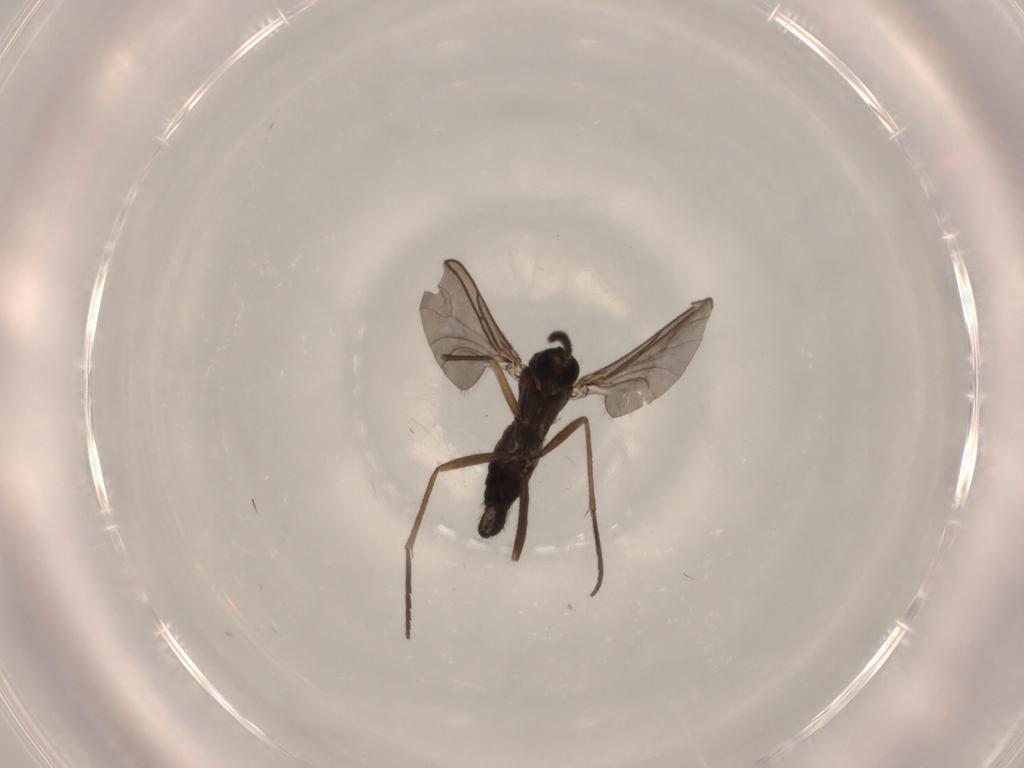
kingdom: Animalia
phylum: Arthropoda
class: Insecta
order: Diptera
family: Sciaridae
